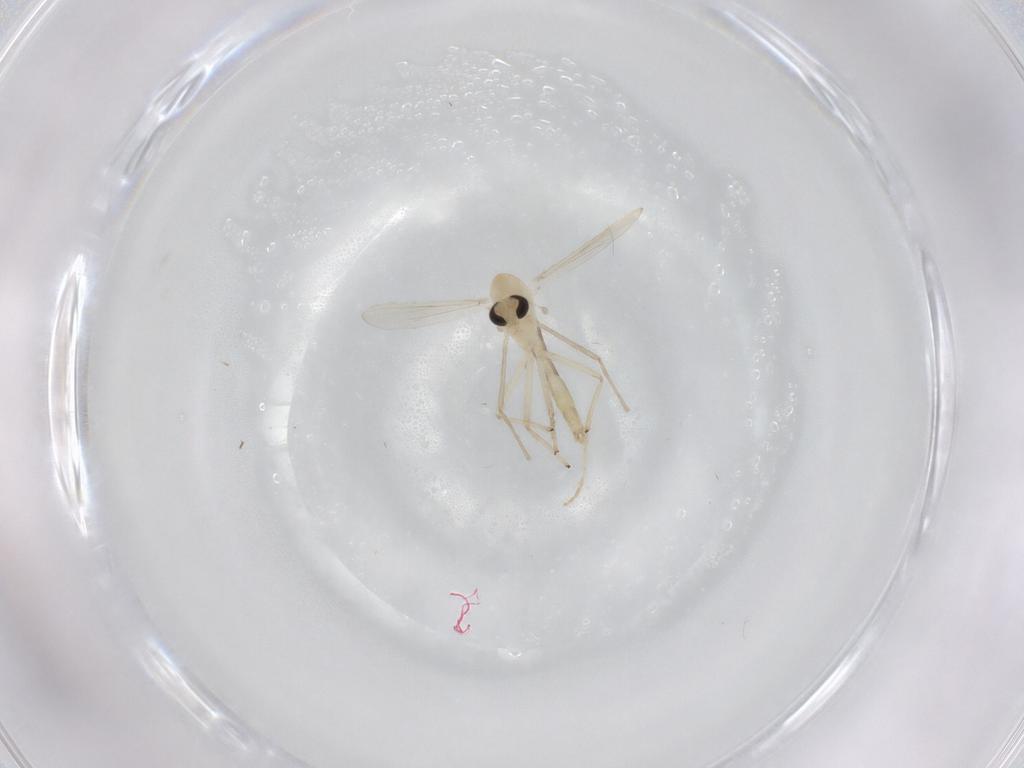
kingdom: Animalia
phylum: Arthropoda
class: Insecta
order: Diptera
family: Chironomidae
